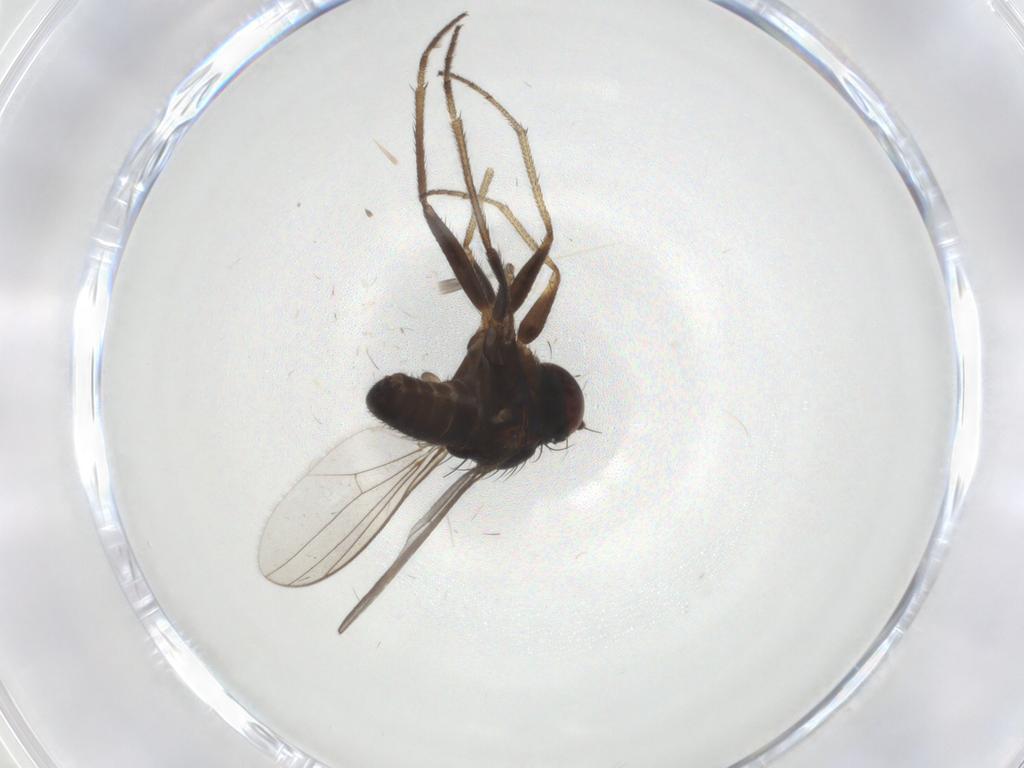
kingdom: Animalia
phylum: Arthropoda
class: Insecta
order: Diptera
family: Dolichopodidae
